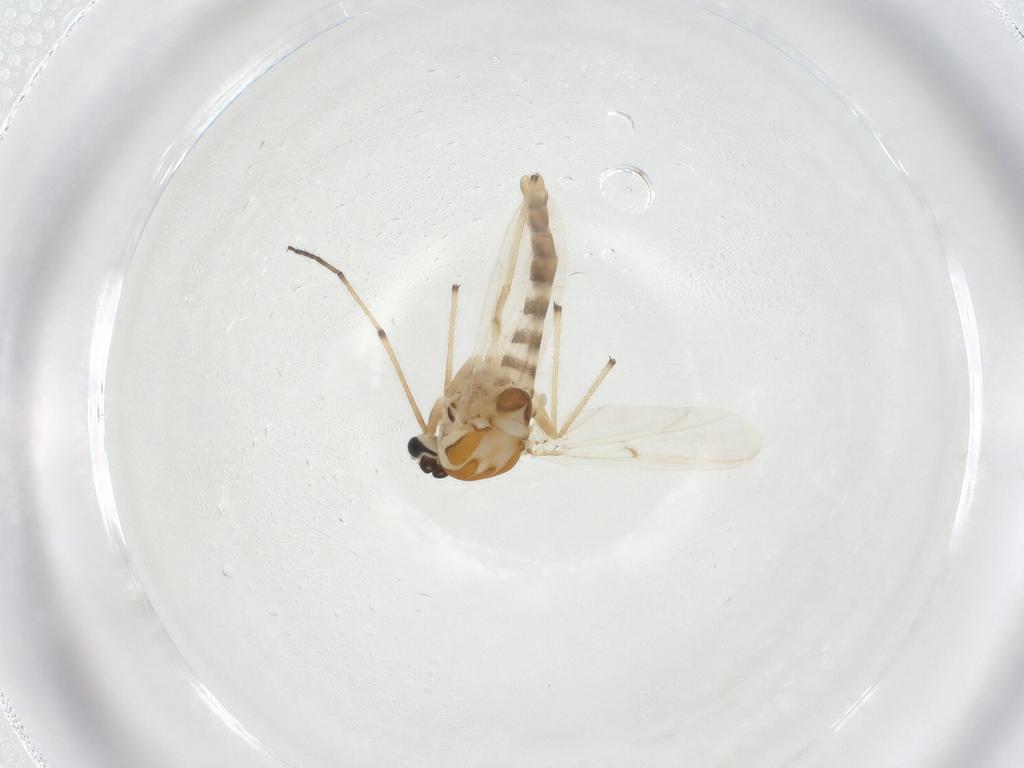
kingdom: Animalia
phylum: Arthropoda
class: Insecta
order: Diptera
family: Chironomidae
